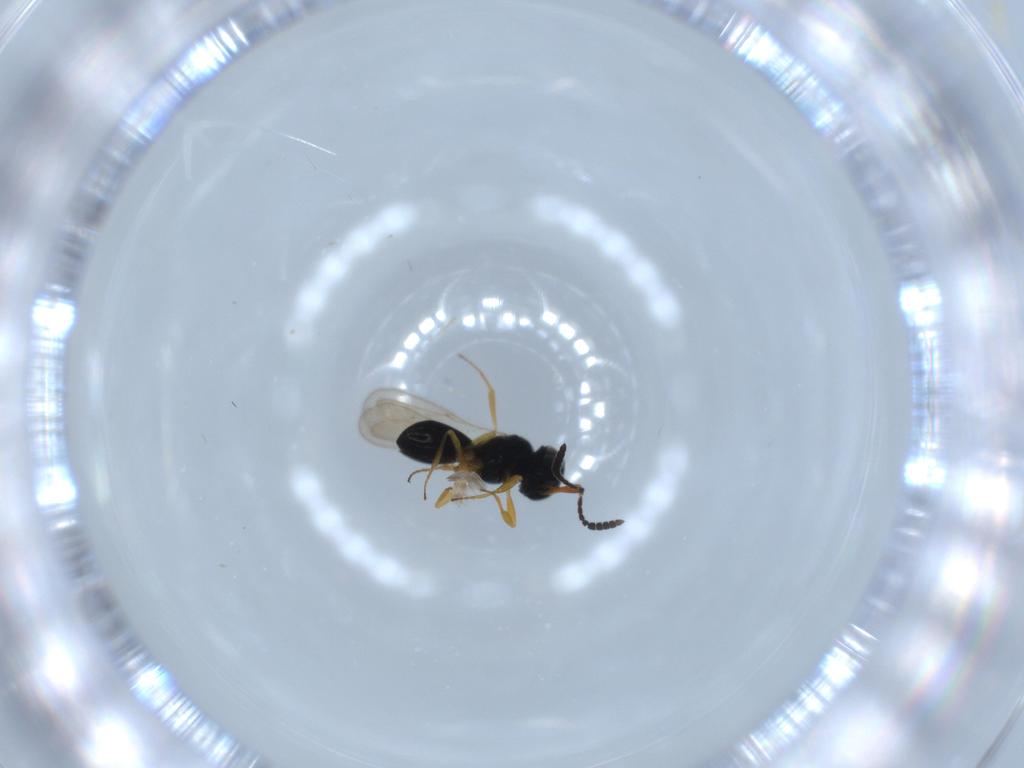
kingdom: Animalia
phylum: Arthropoda
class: Insecta
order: Hymenoptera
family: Scelionidae
